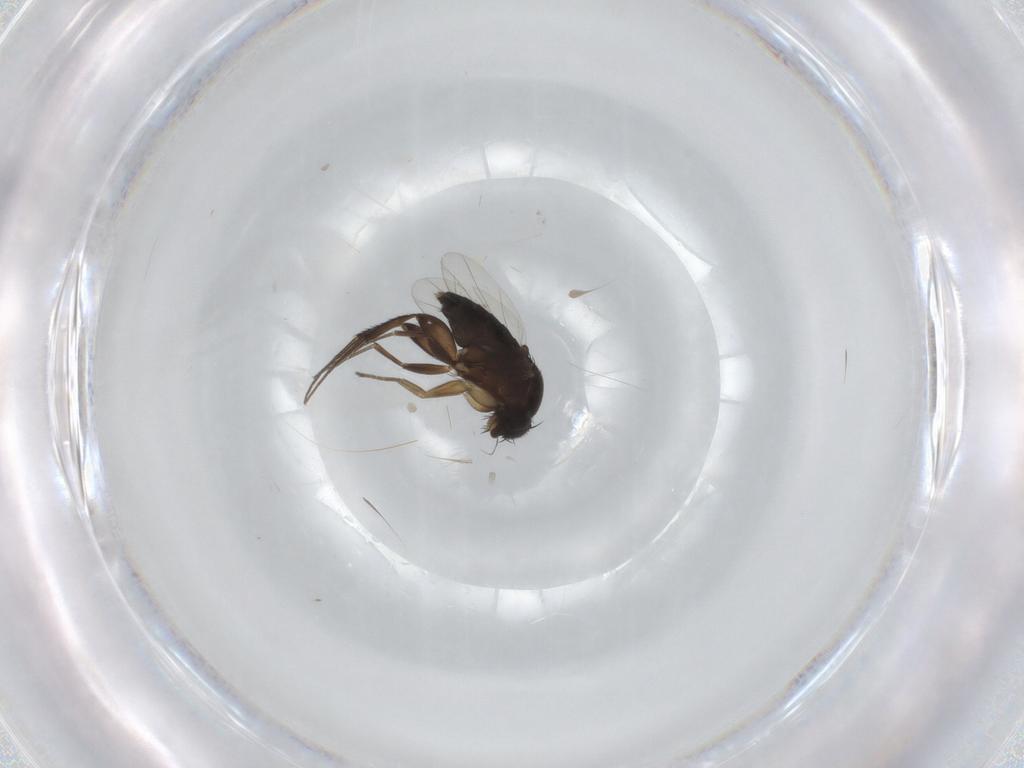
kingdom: Animalia
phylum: Arthropoda
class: Insecta
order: Diptera
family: Phoridae
